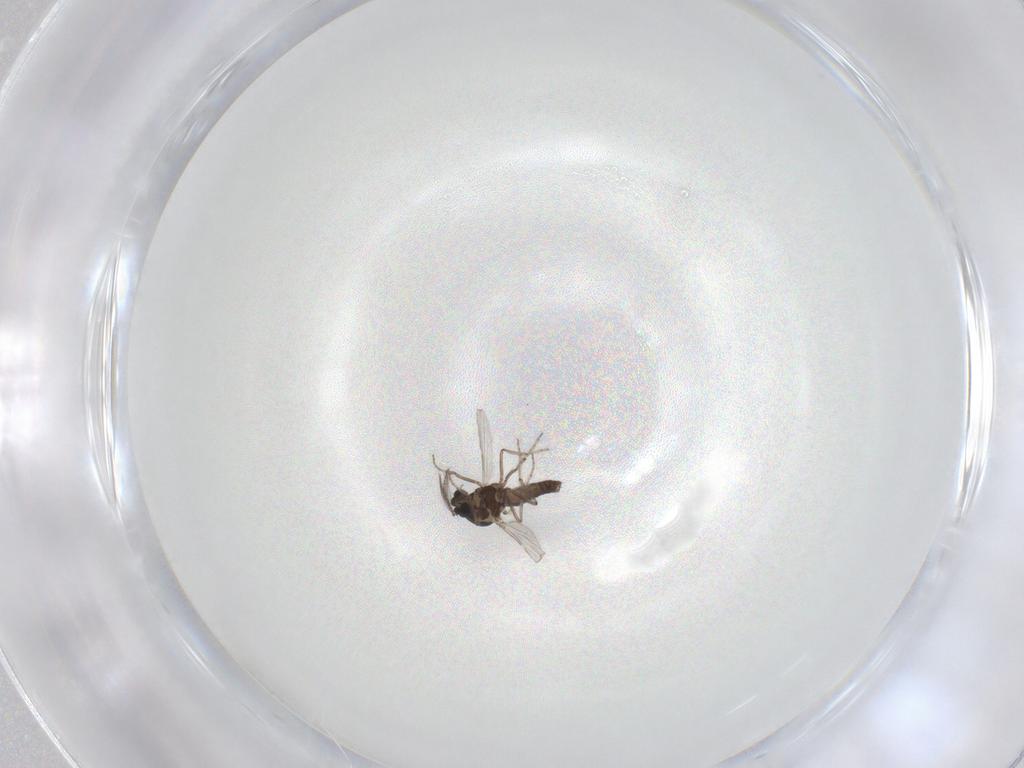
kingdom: Animalia
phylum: Arthropoda
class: Insecta
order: Diptera
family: Ceratopogonidae
